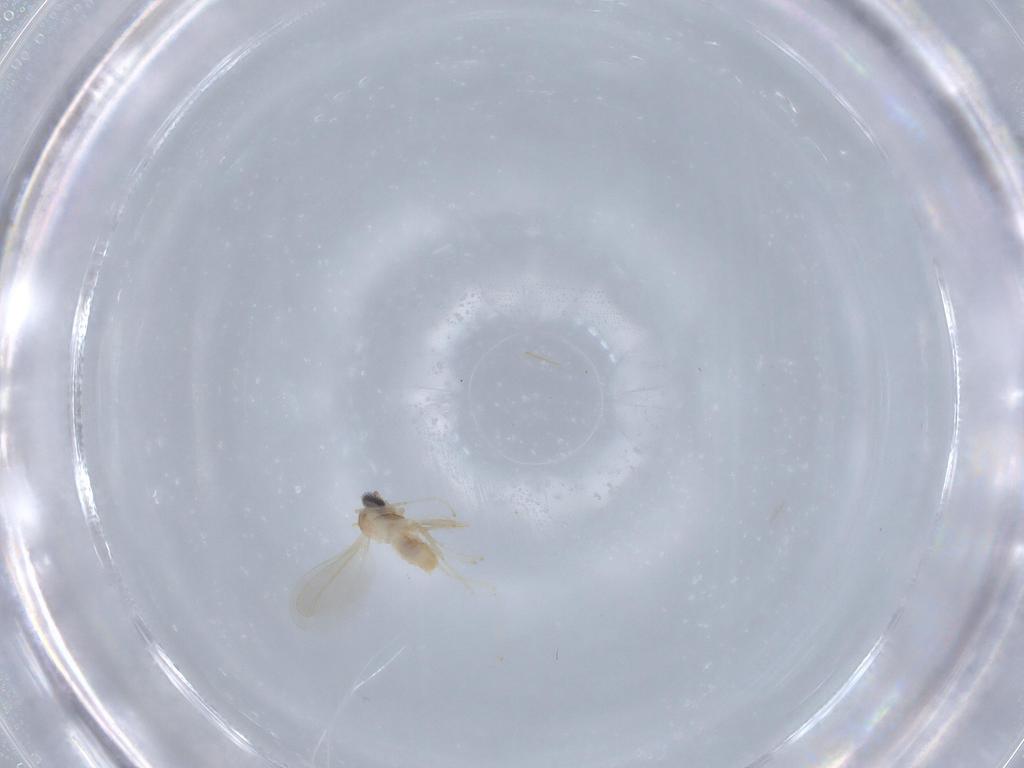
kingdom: Animalia
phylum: Arthropoda
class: Insecta
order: Diptera
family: Cecidomyiidae
